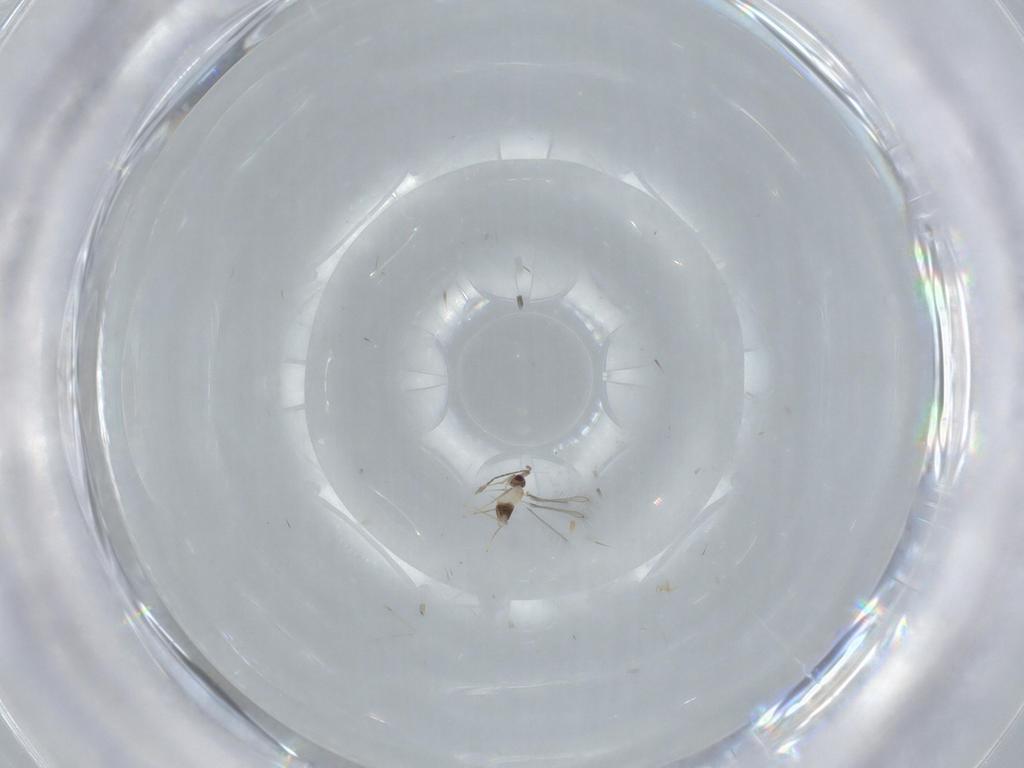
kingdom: Animalia
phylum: Arthropoda
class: Insecta
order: Hymenoptera
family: Mymaridae
